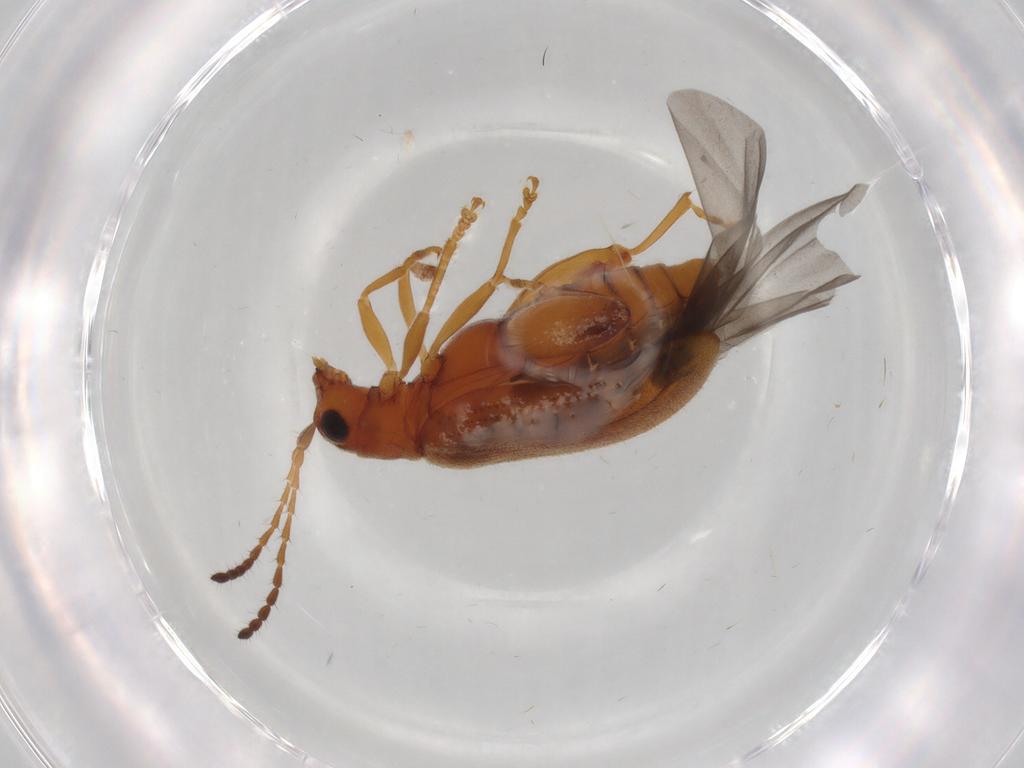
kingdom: Animalia
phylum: Arthropoda
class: Insecta
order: Coleoptera
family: Chrysomelidae
